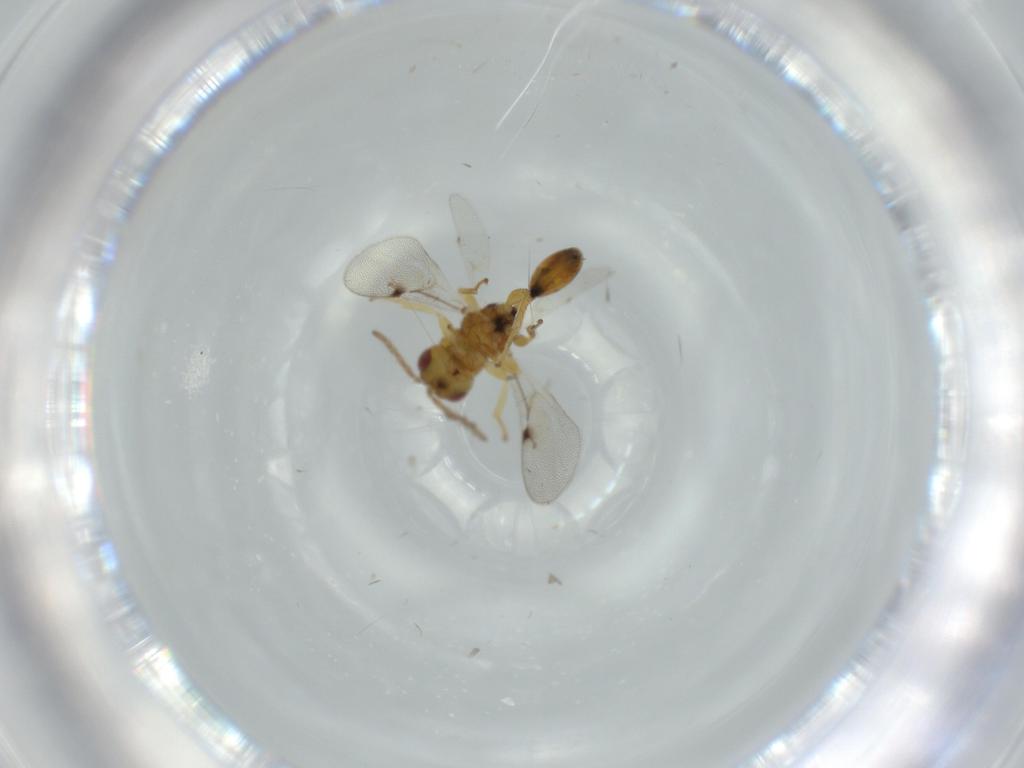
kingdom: Animalia
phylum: Arthropoda
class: Insecta
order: Hymenoptera
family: Eurytomidae
